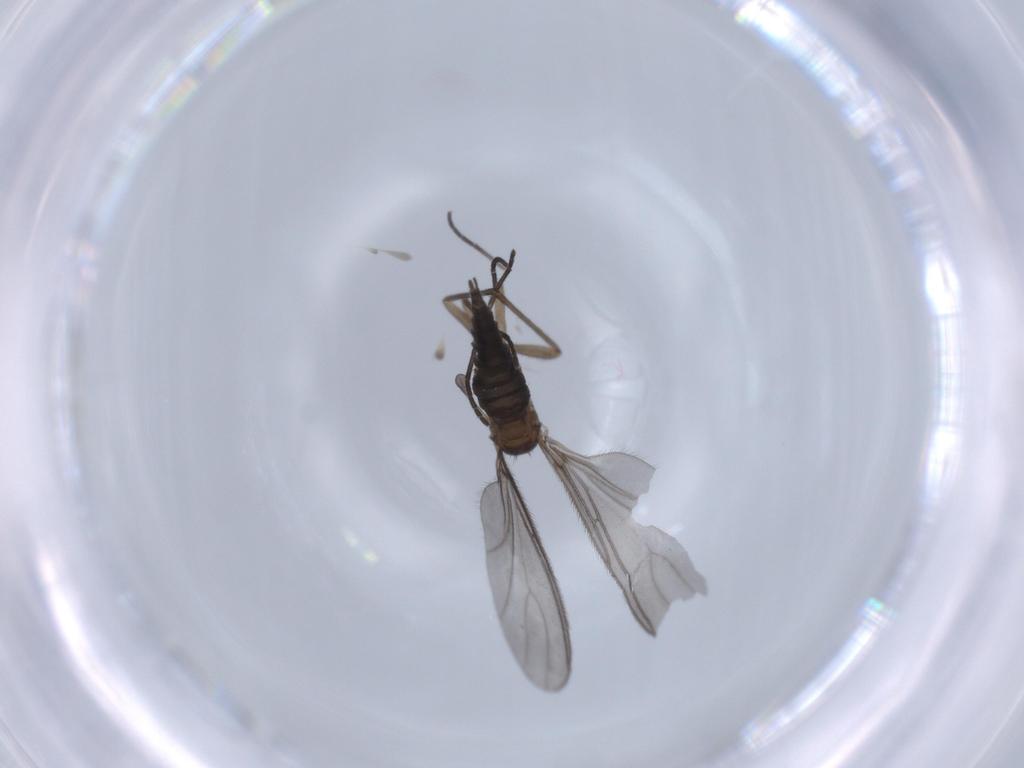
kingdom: Animalia
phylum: Arthropoda
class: Insecta
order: Diptera
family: Sciaridae
